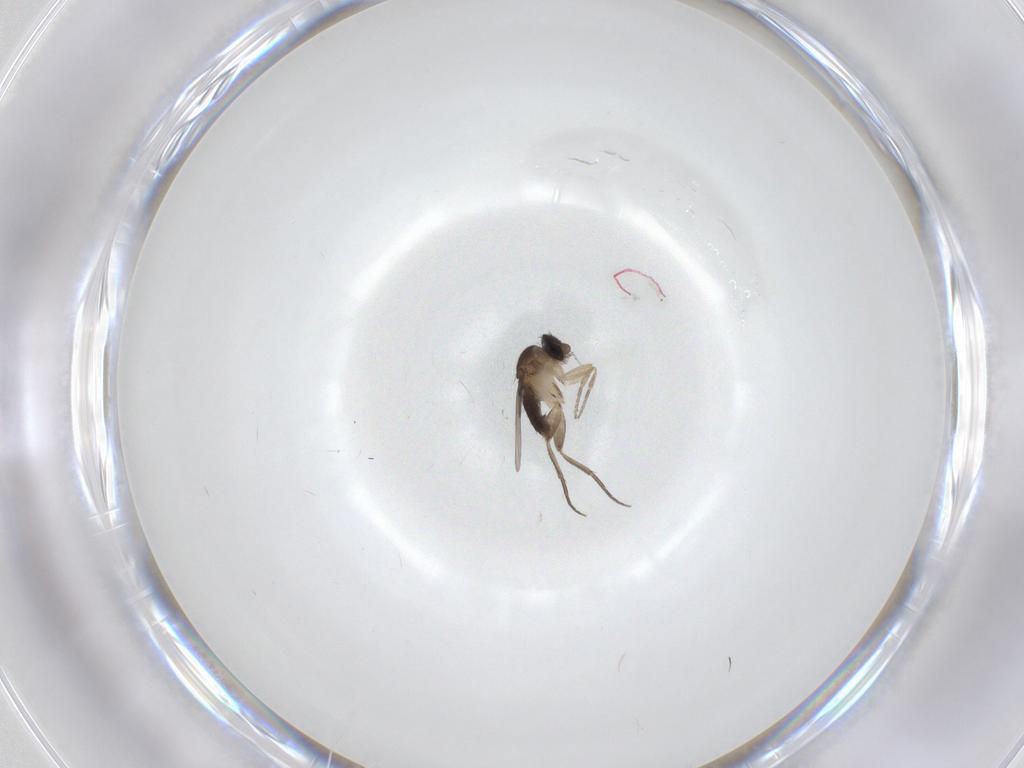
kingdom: Animalia
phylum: Arthropoda
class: Insecta
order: Diptera
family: Phoridae
